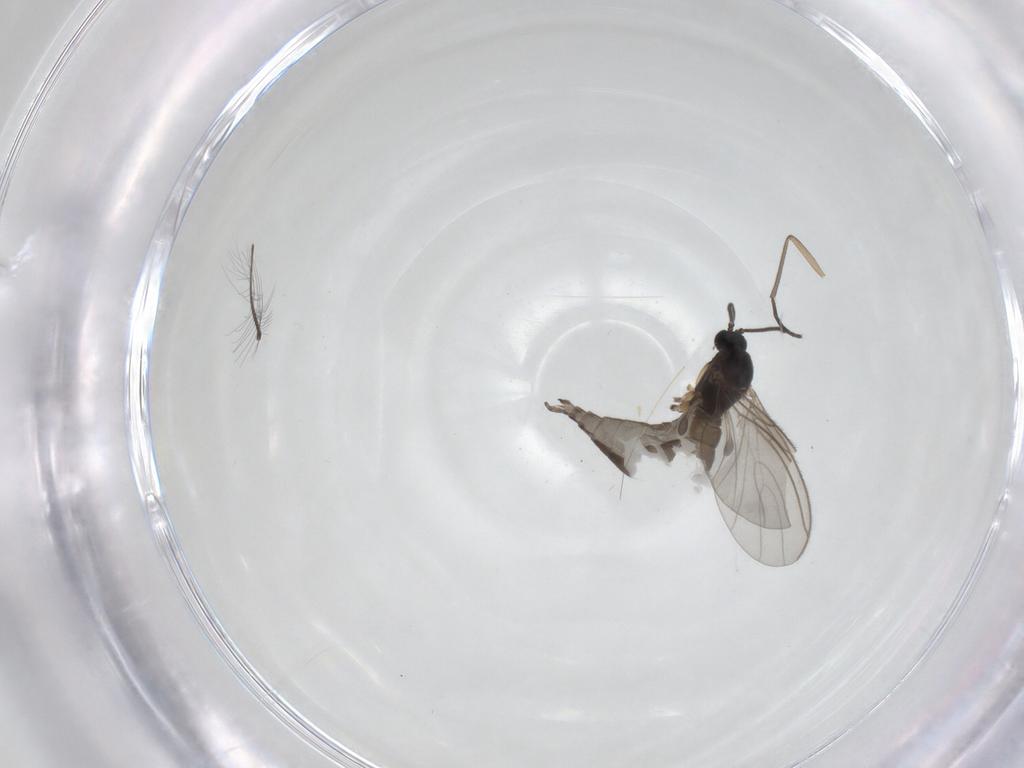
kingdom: Animalia
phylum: Arthropoda
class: Insecta
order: Diptera
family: Sciaridae
